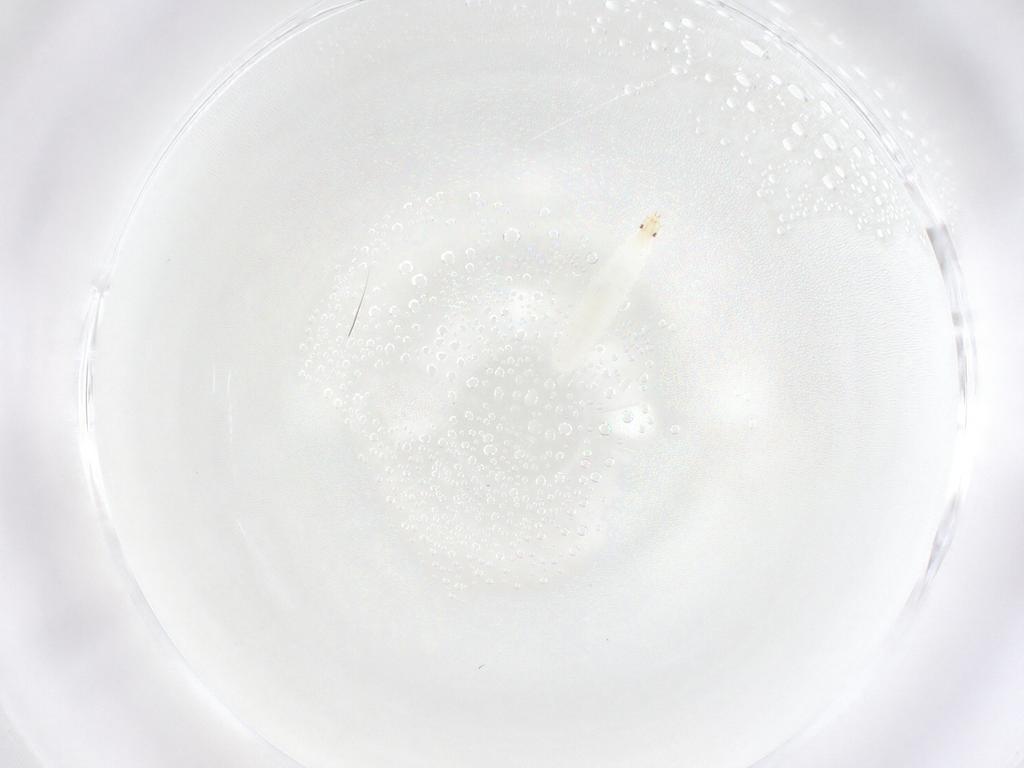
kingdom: Animalia
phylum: Arthropoda
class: Insecta
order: Diptera
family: Stratiomyidae
